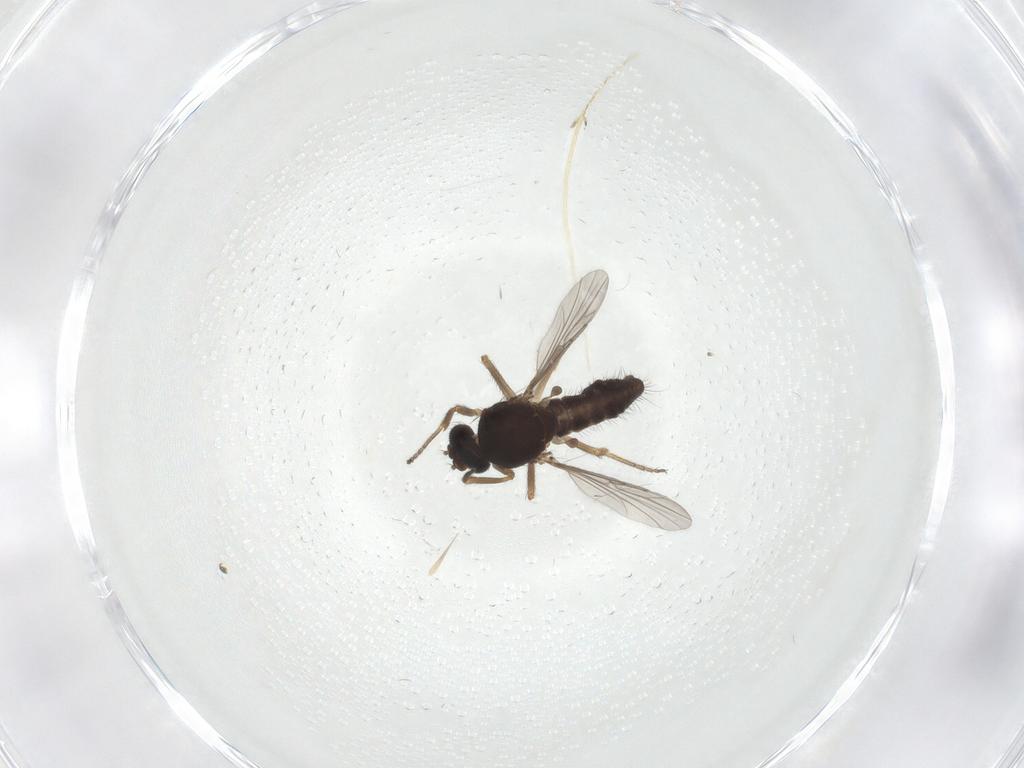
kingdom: Animalia
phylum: Arthropoda
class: Insecta
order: Diptera
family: Ceratopogonidae
